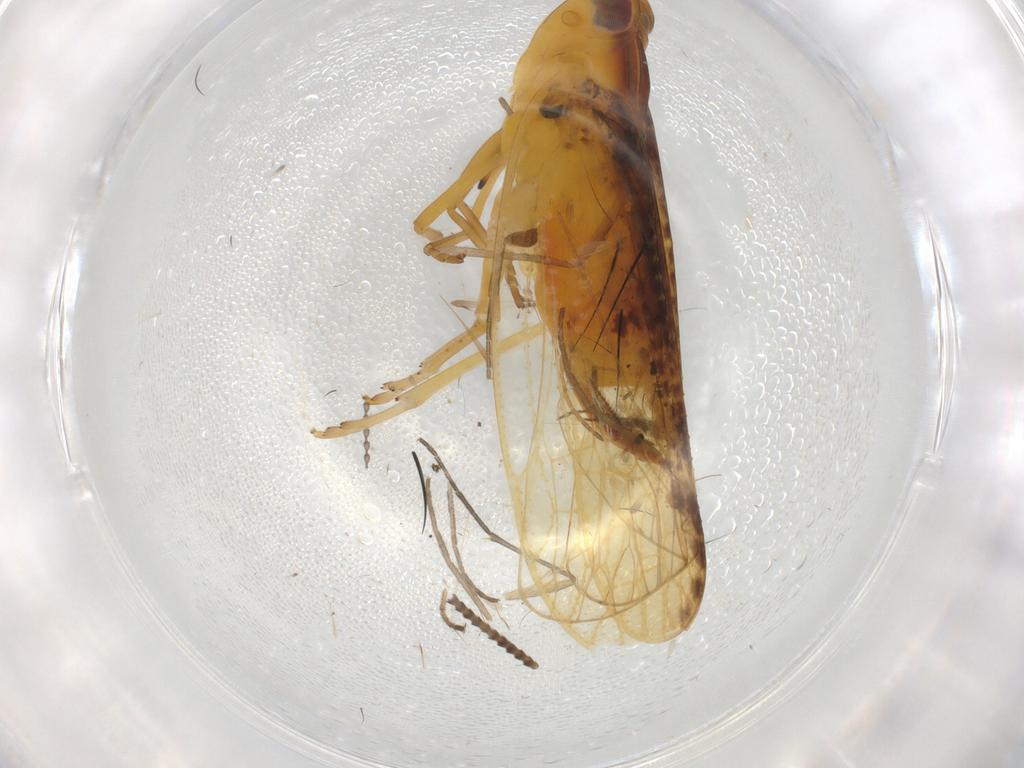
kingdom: Animalia
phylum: Arthropoda
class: Insecta
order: Hemiptera
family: Cixiidae
